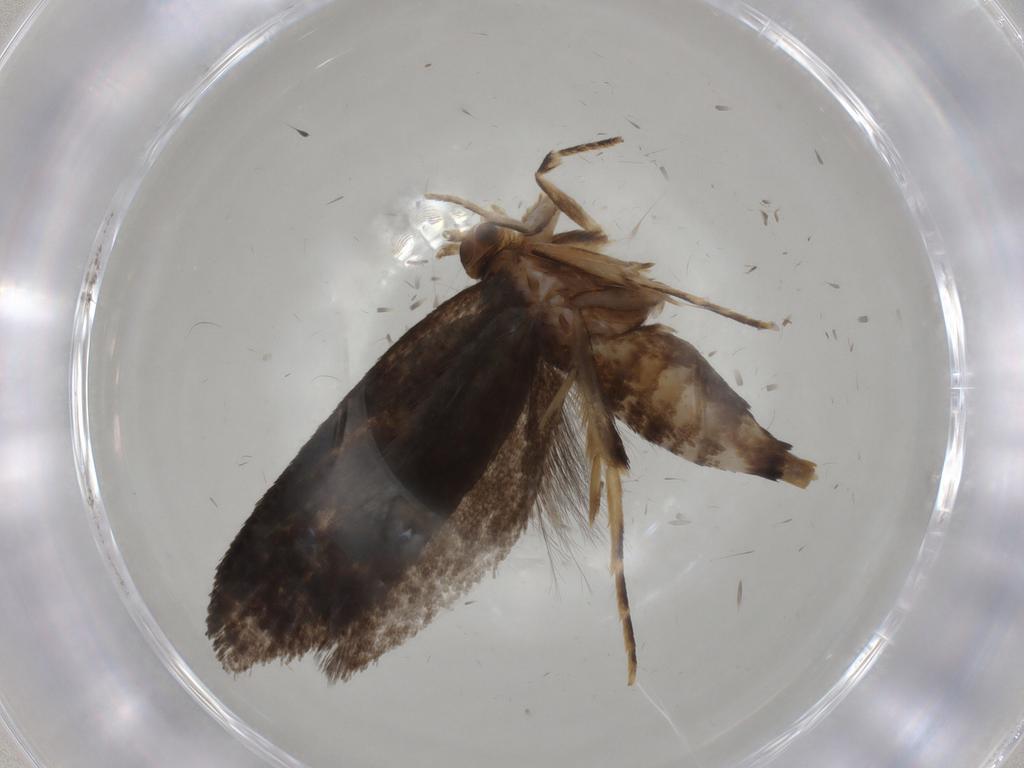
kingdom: Animalia
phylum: Arthropoda
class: Insecta
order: Lepidoptera
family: Tineidae
